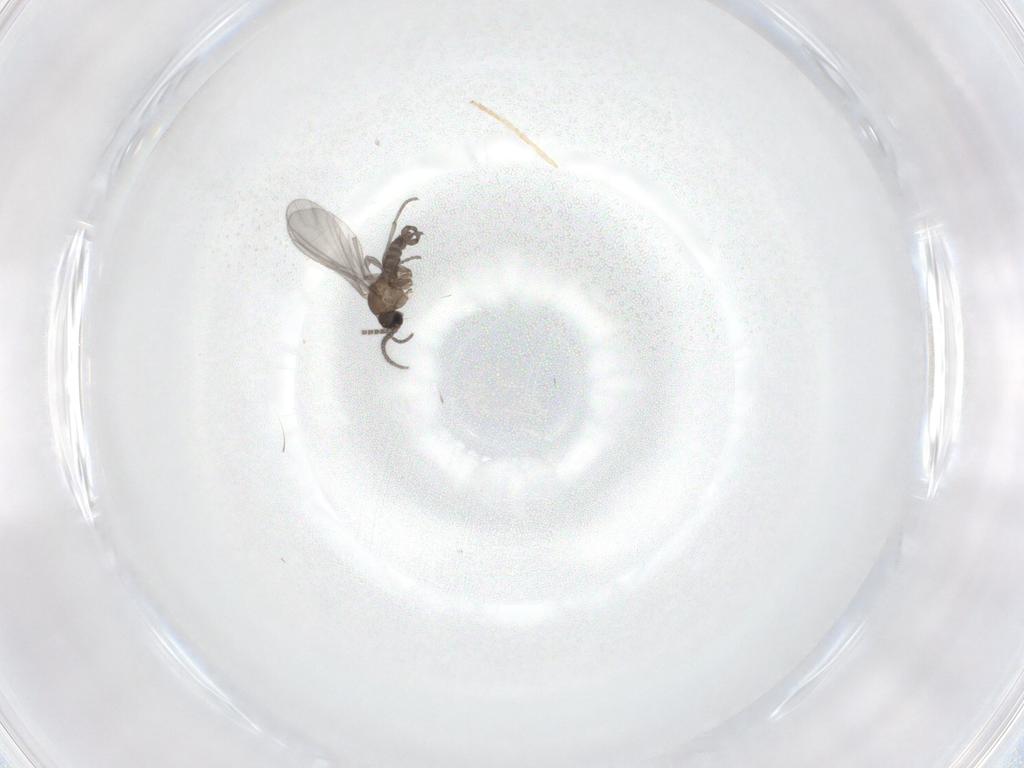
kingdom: Animalia
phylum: Arthropoda
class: Insecta
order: Diptera
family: Sciaridae
